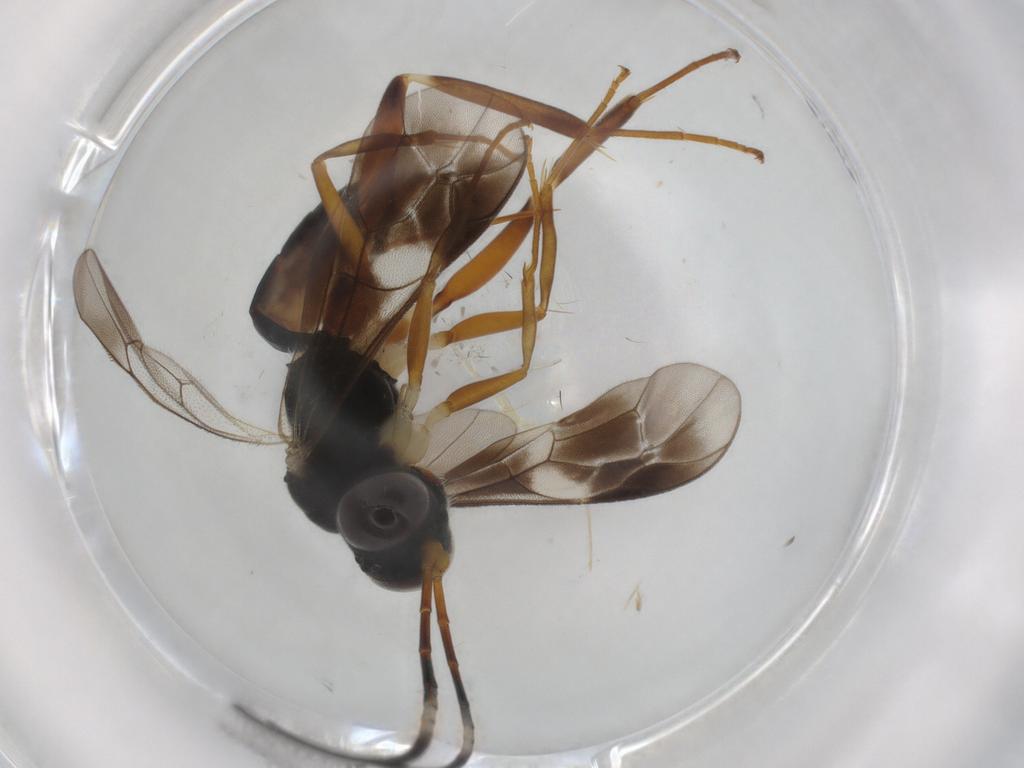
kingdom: Animalia
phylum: Arthropoda
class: Insecta
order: Hymenoptera
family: Ichneumonidae
